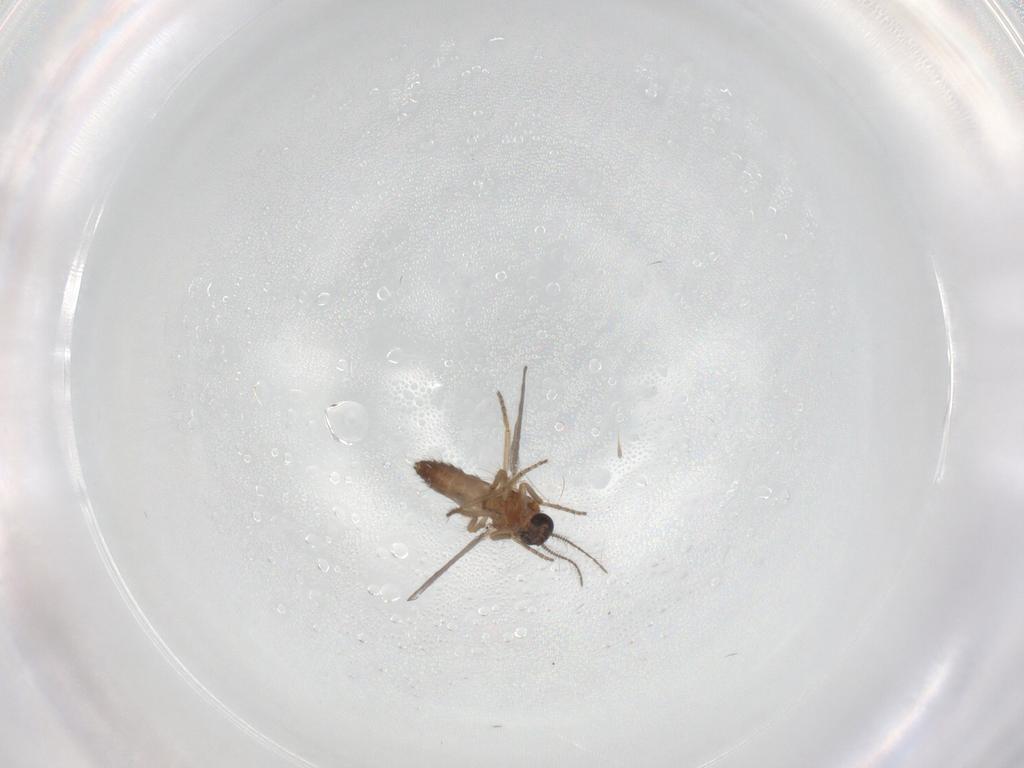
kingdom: Animalia
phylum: Arthropoda
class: Insecta
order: Diptera
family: Ceratopogonidae
